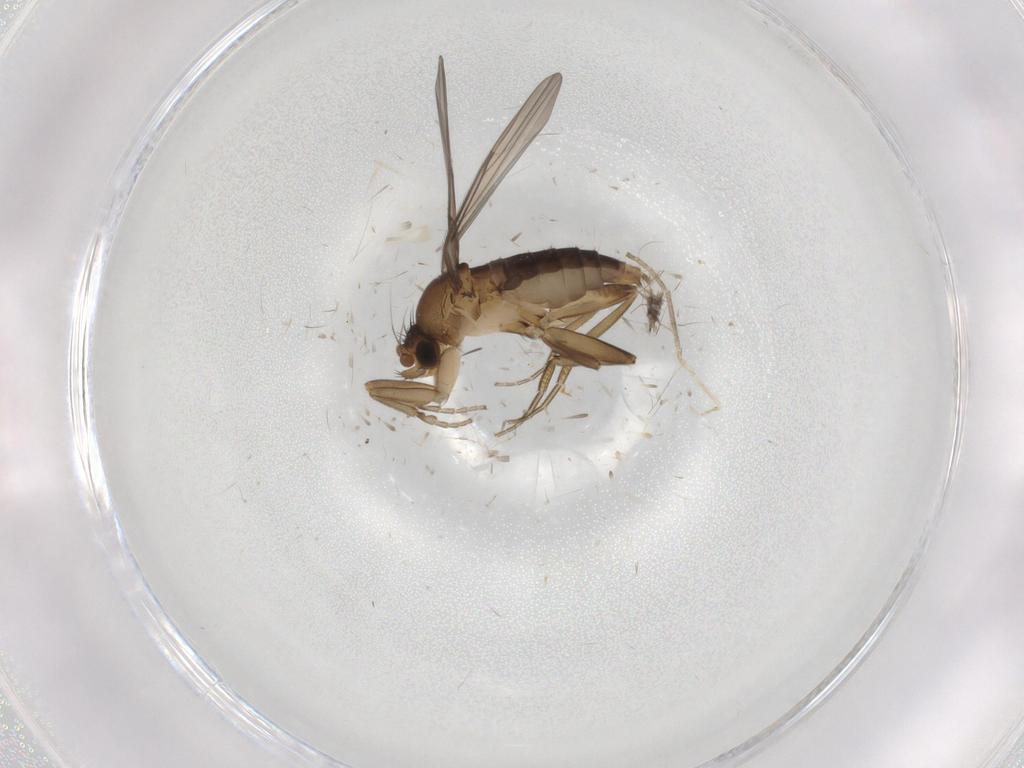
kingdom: Animalia
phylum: Arthropoda
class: Insecta
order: Diptera
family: Phoridae
